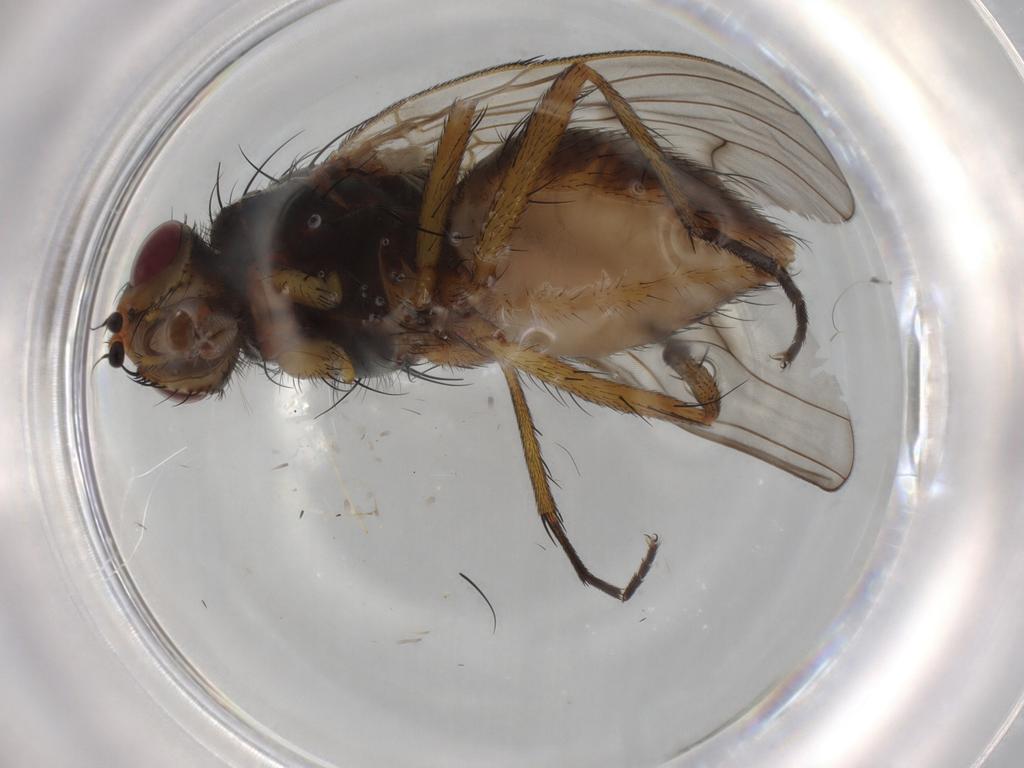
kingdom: Animalia
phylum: Arthropoda
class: Insecta
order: Diptera
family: Anthomyiidae
